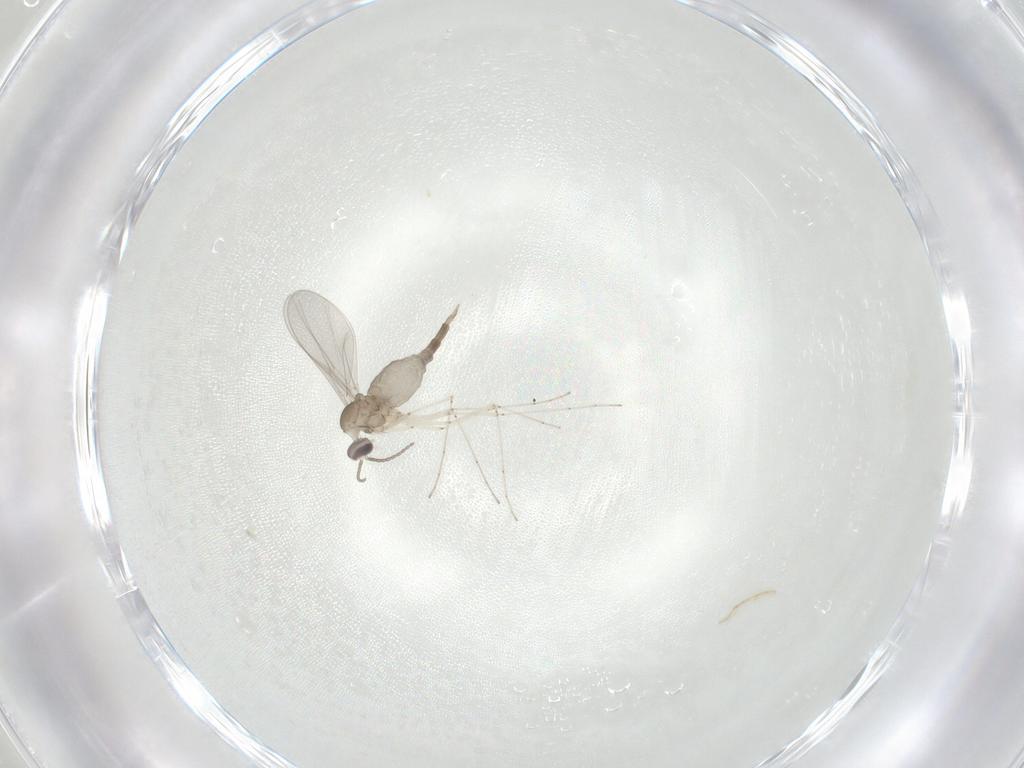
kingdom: Animalia
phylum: Arthropoda
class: Insecta
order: Diptera
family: Cecidomyiidae
